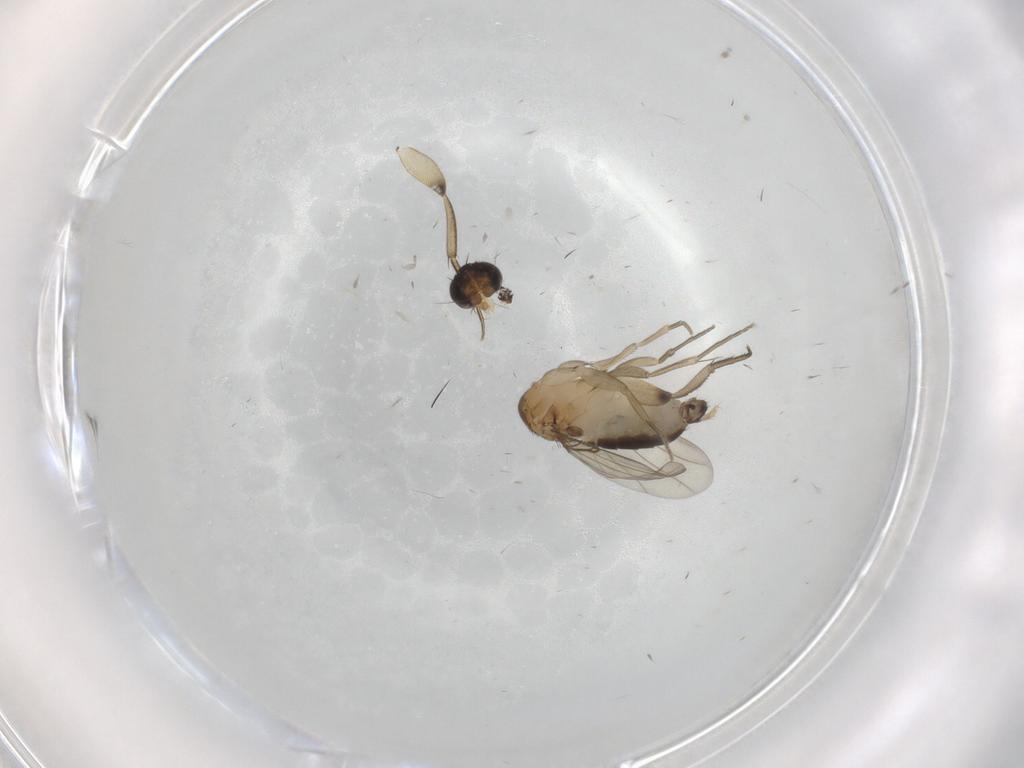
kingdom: Animalia
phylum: Arthropoda
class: Insecta
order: Diptera
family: Phoridae
